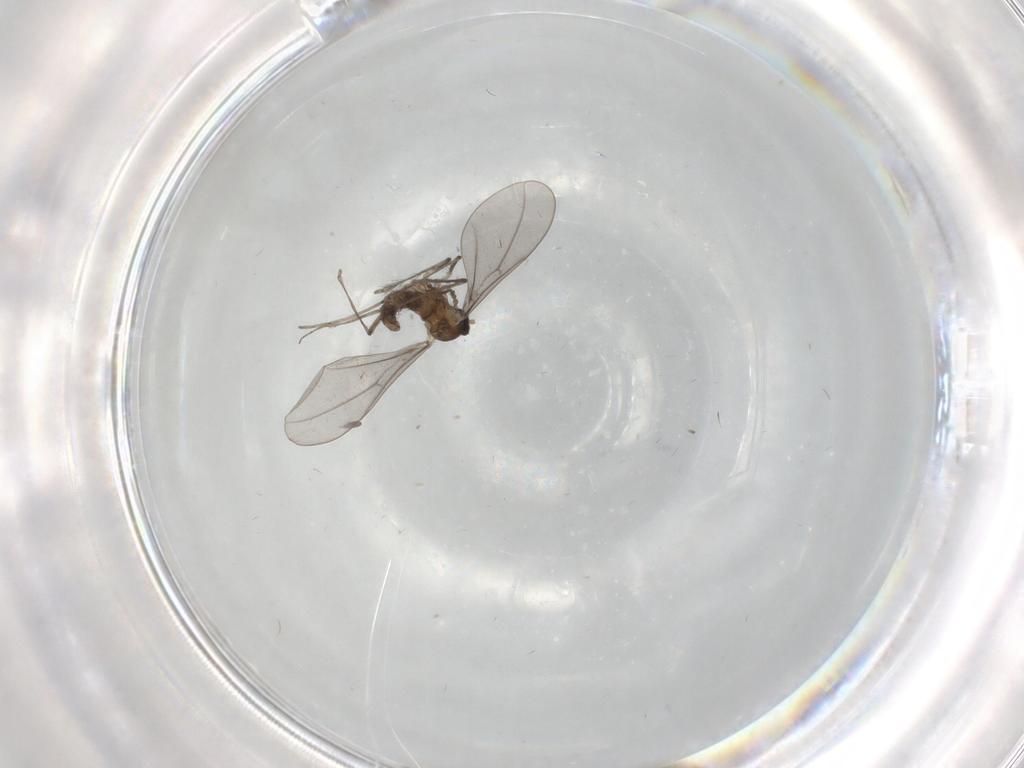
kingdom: Animalia
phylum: Arthropoda
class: Insecta
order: Diptera
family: Cecidomyiidae
